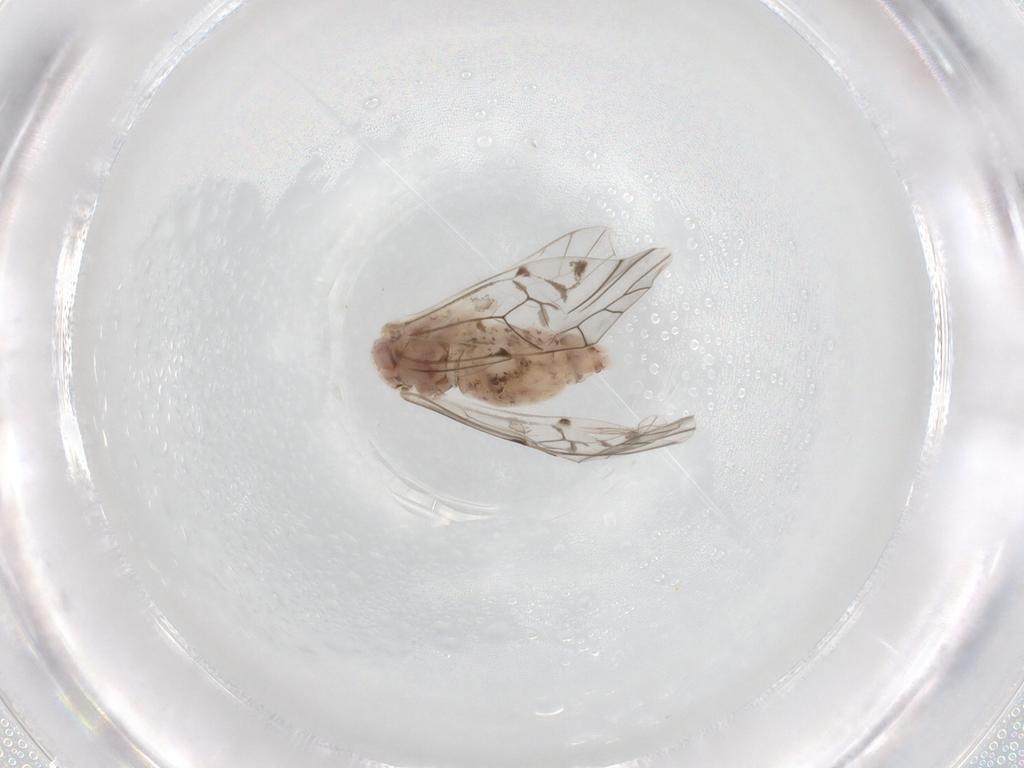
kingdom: Animalia
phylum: Arthropoda
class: Insecta
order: Psocodea
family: Psocidae
